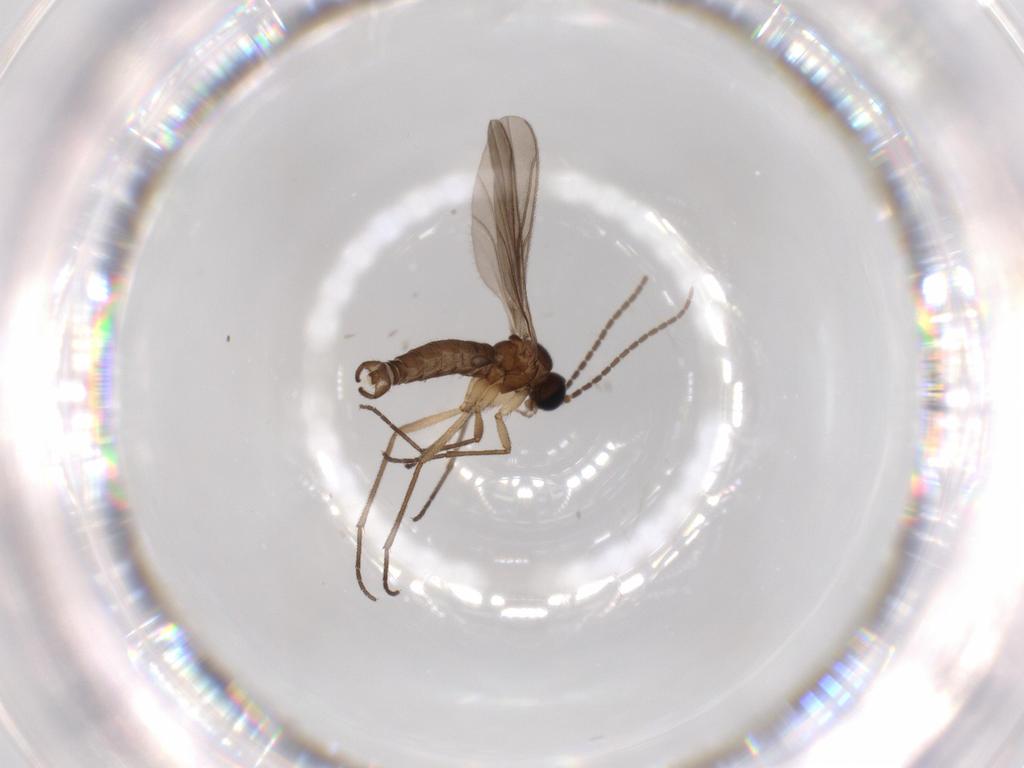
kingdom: Animalia
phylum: Arthropoda
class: Insecta
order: Diptera
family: Sciaridae
